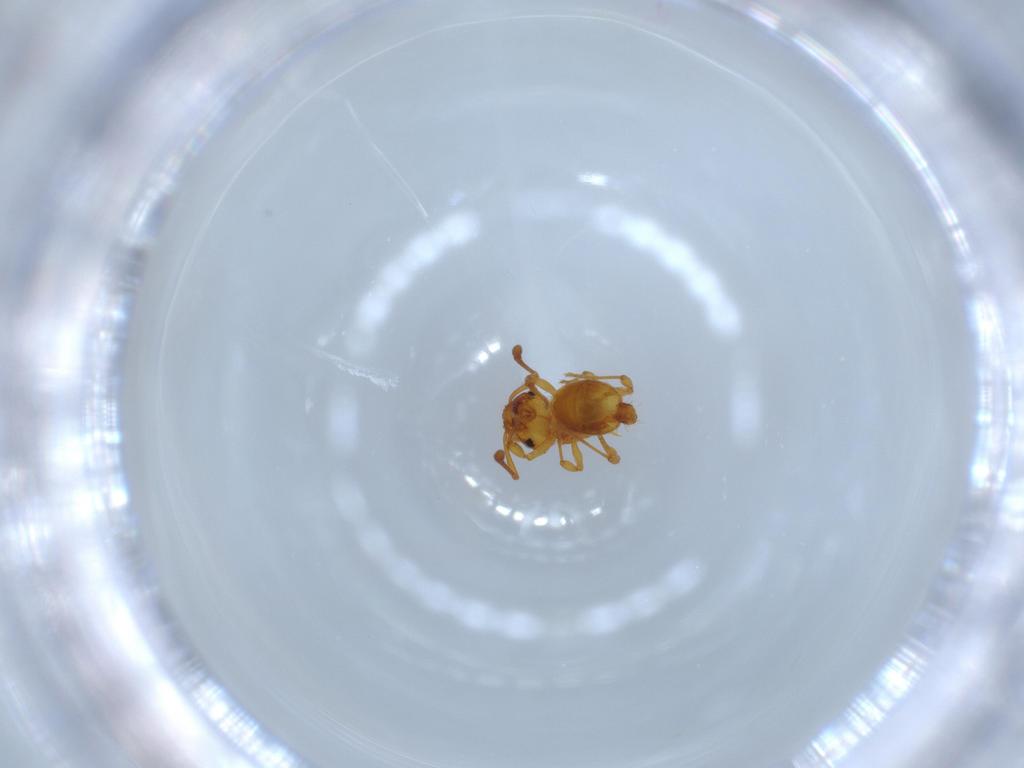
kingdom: Animalia
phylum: Arthropoda
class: Insecta
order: Hymenoptera
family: Formicidae
